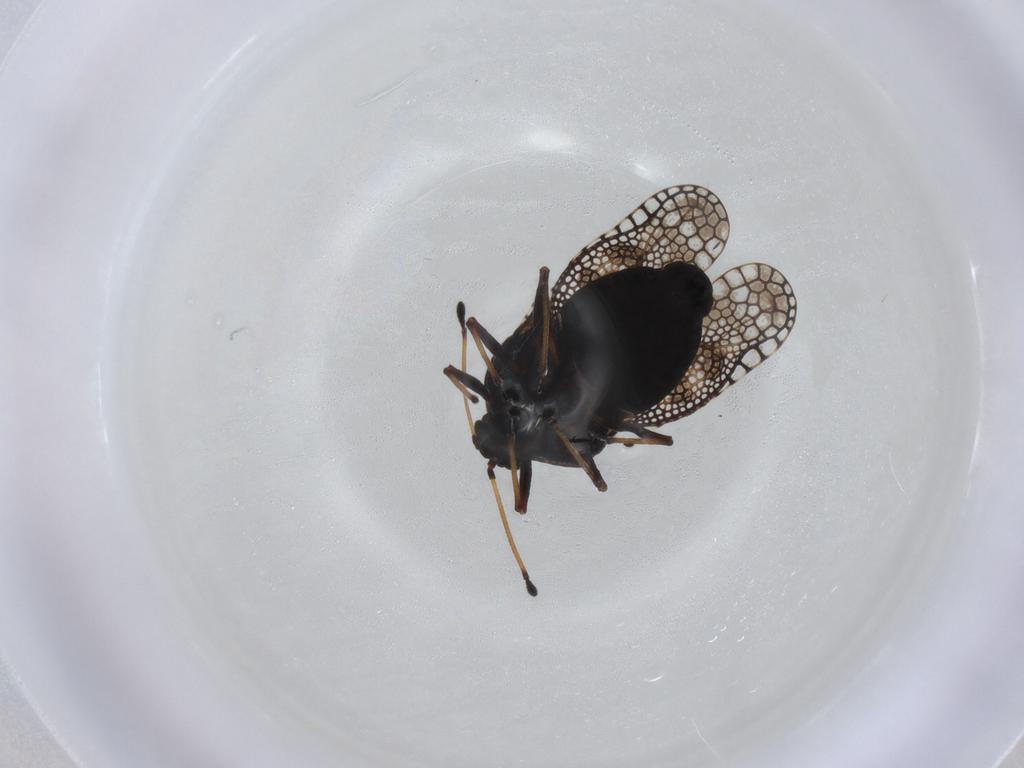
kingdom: Animalia
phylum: Arthropoda
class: Insecta
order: Hemiptera
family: Tingidae
